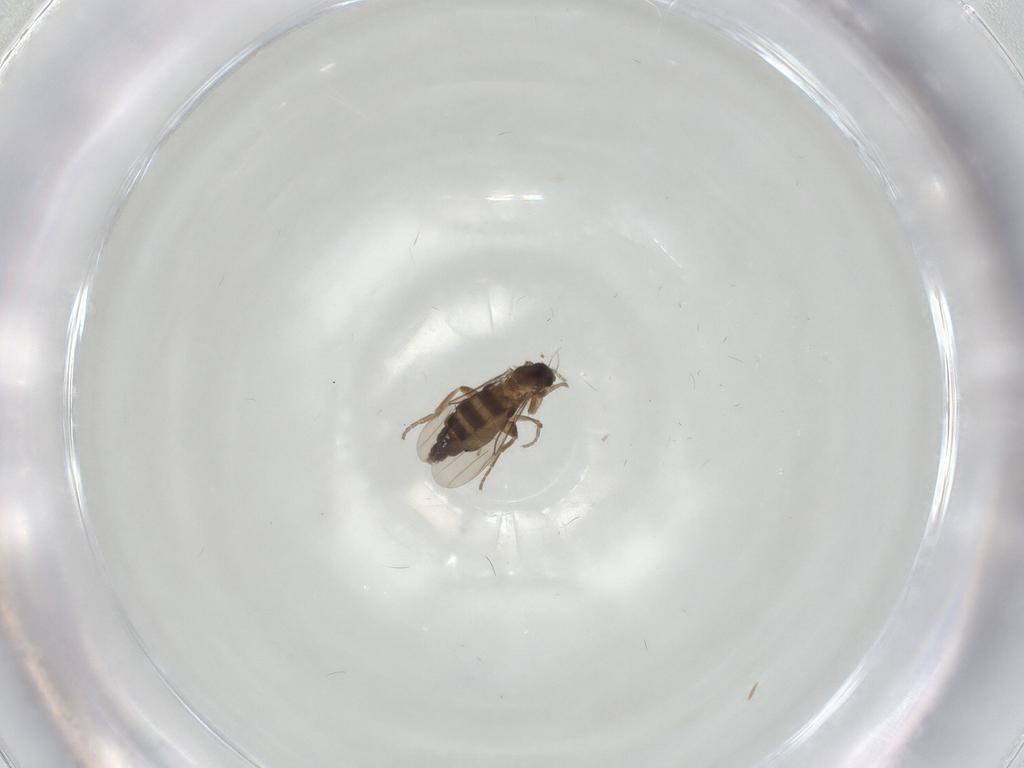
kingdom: Animalia
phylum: Arthropoda
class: Insecta
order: Diptera
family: Phoridae
